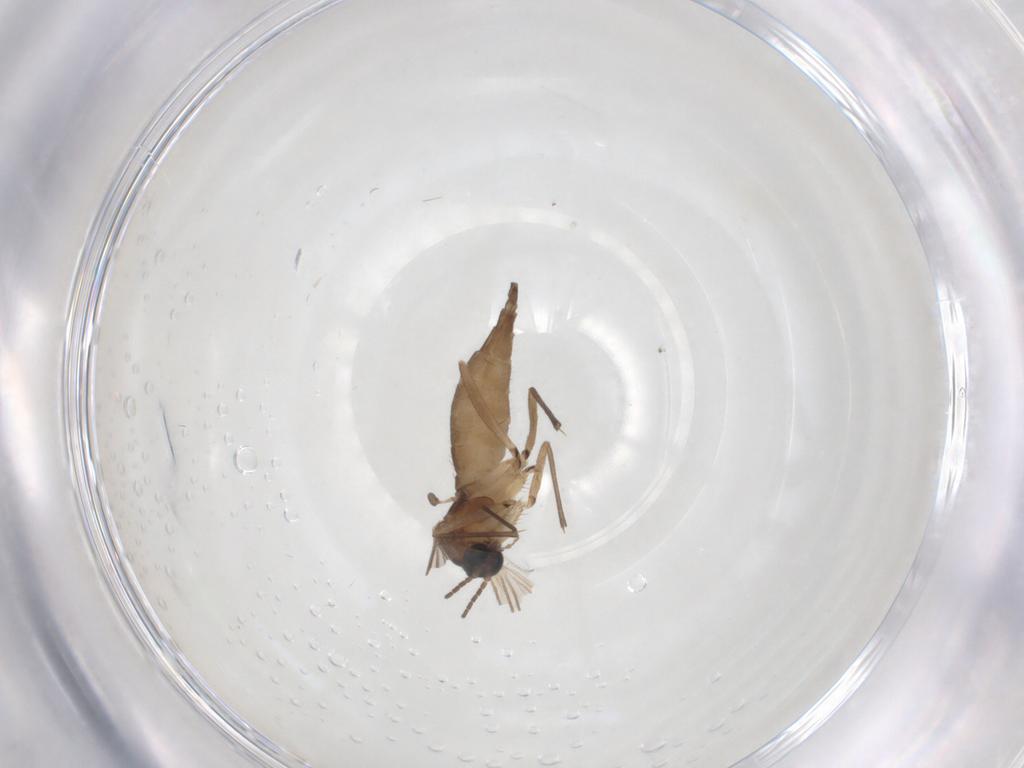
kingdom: Animalia
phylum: Arthropoda
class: Insecta
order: Diptera
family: Sciaridae
